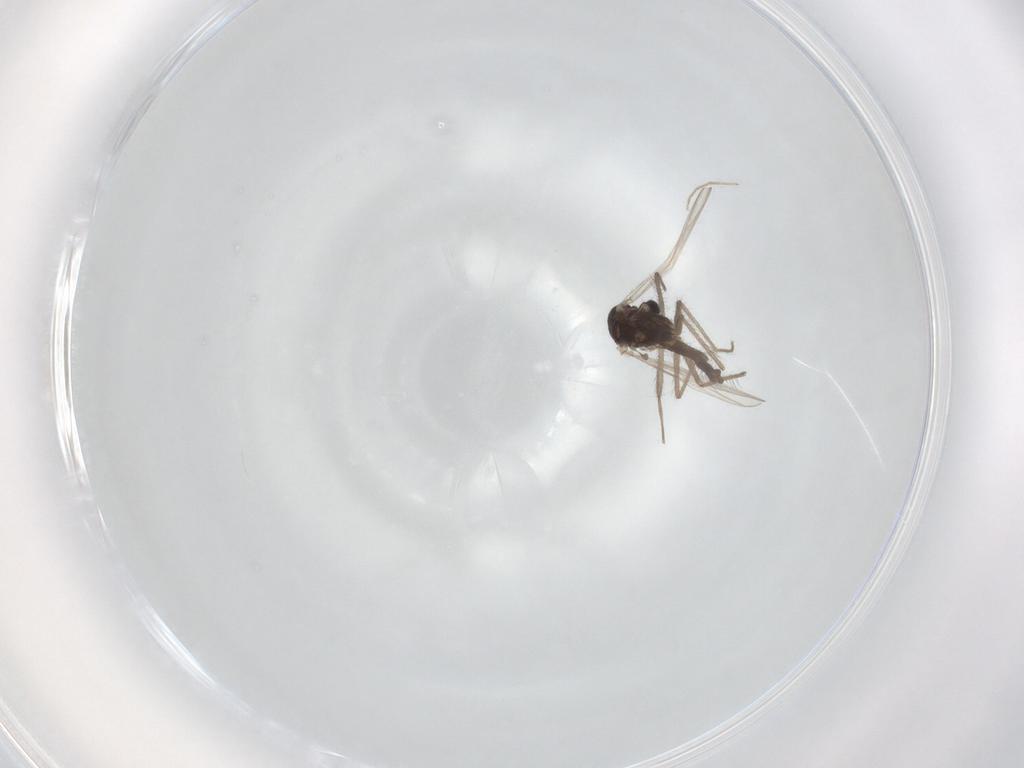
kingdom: Animalia
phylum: Arthropoda
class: Insecta
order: Diptera
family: Chironomidae
